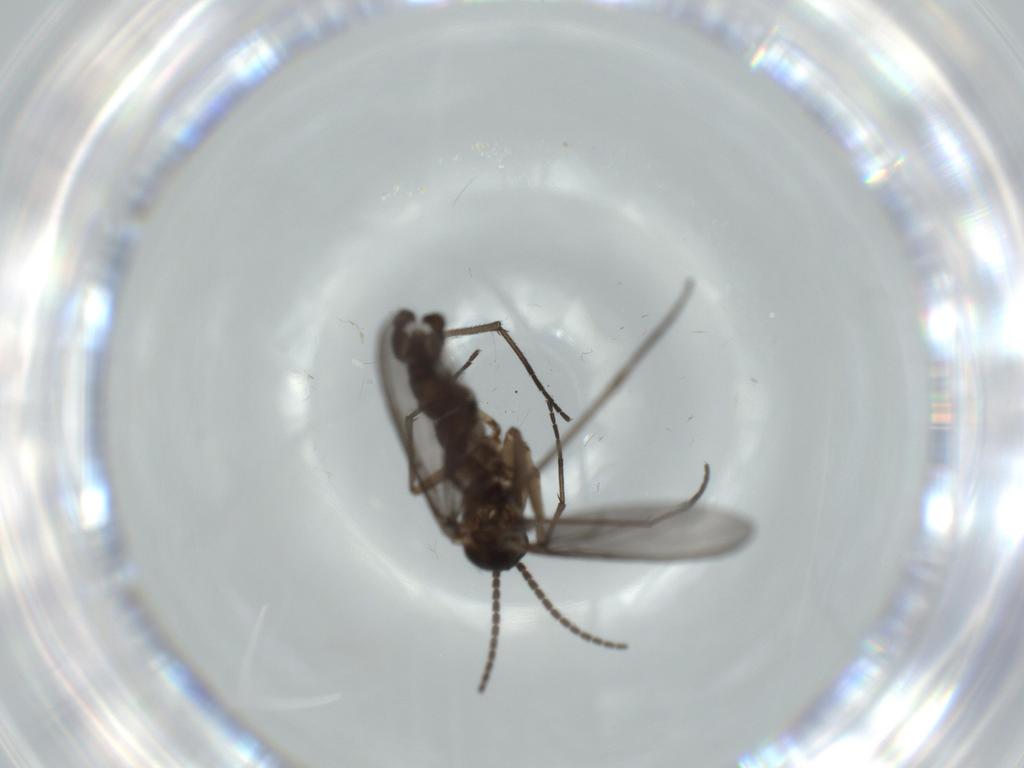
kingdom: Animalia
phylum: Arthropoda
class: Insecta
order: Diptera
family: Sciaridae
